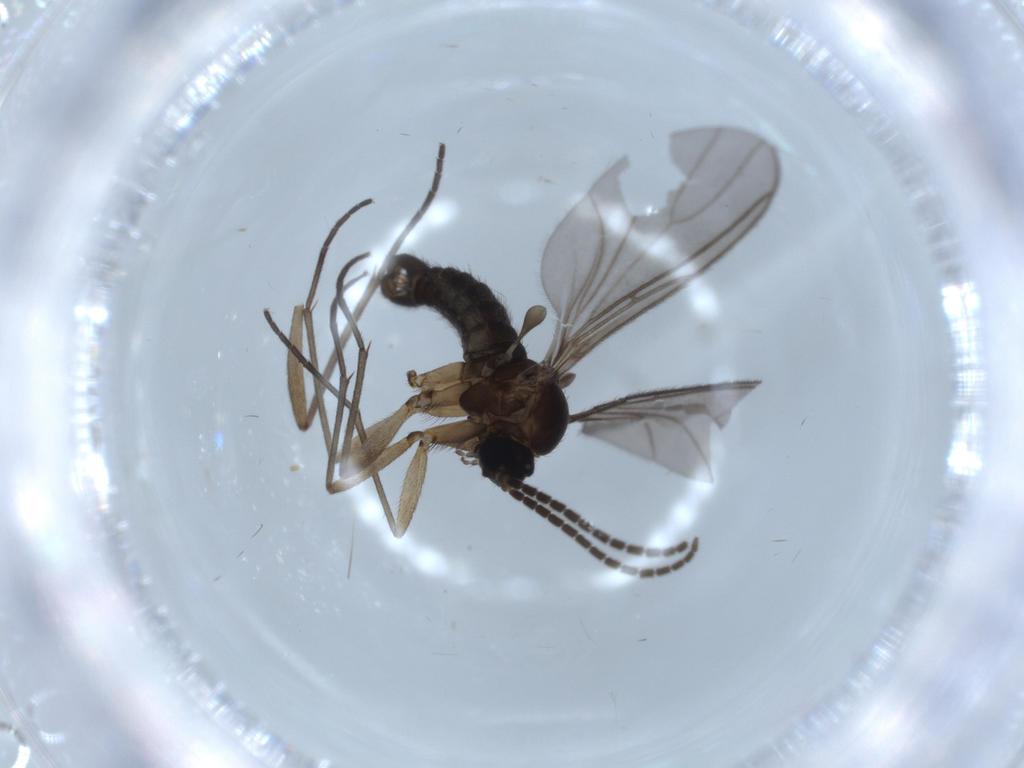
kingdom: Animalia
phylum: Arthropoda
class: Insecta
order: Diptera
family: Sciaridae
